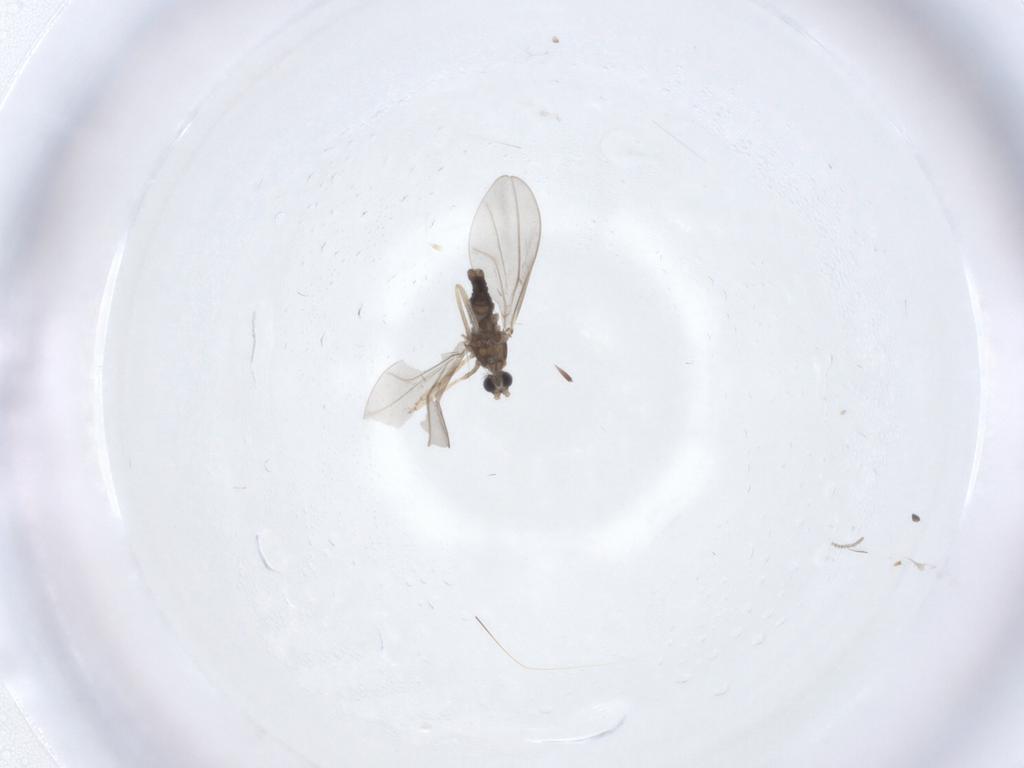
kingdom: Animalia
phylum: Arthropoda
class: Insecta
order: Diptera
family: Cecidomyiidae
